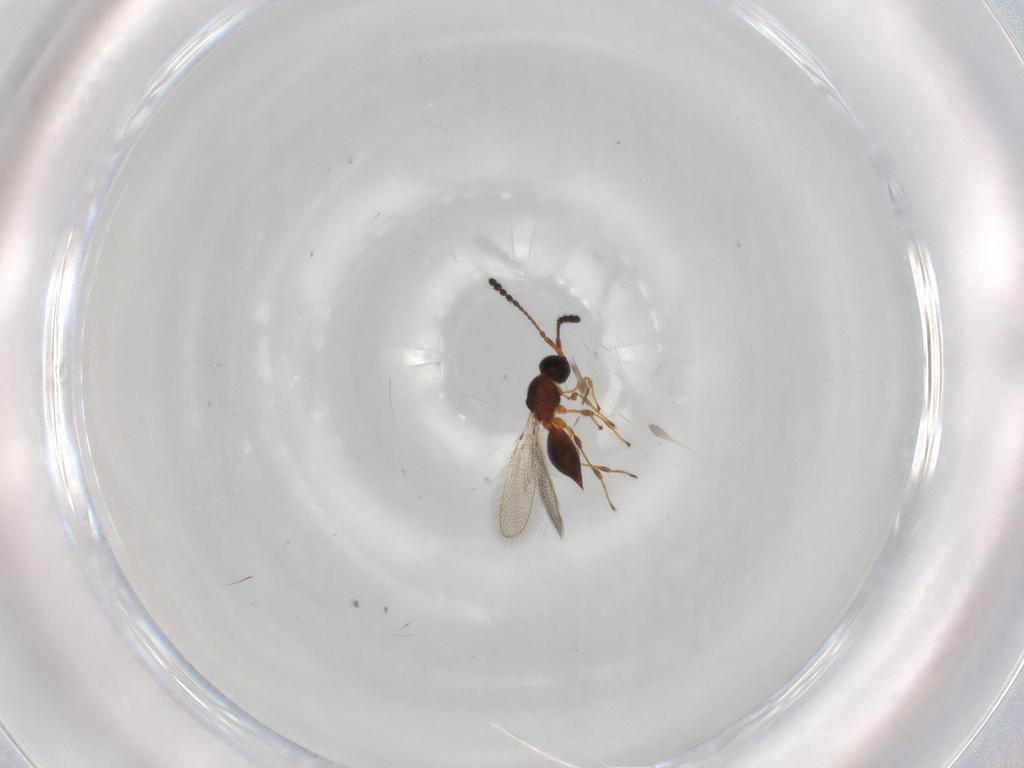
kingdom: Animalia
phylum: Arthropoda
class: Insecta
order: Hymenoptera
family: Diapriidae
